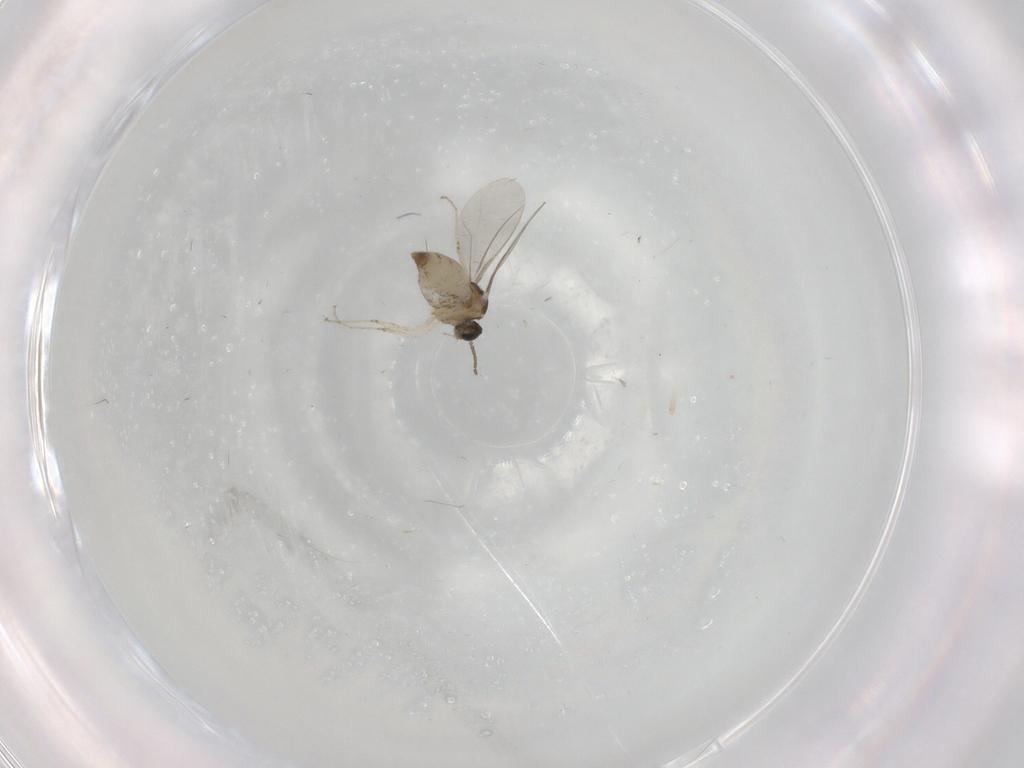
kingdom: Animalia
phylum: Arthropoda
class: Insecta
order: Diptera
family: Cecidomyiidae
